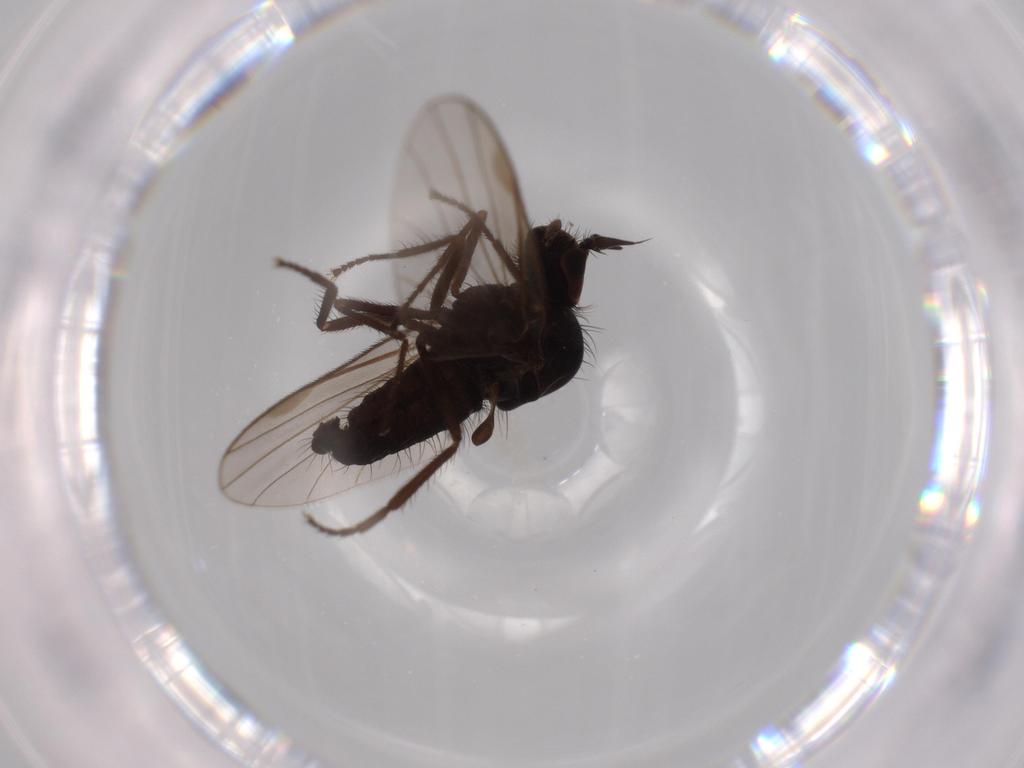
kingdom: Animalia
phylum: Arthropoda
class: Insecta
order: Diptera
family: Dolichopodidae
